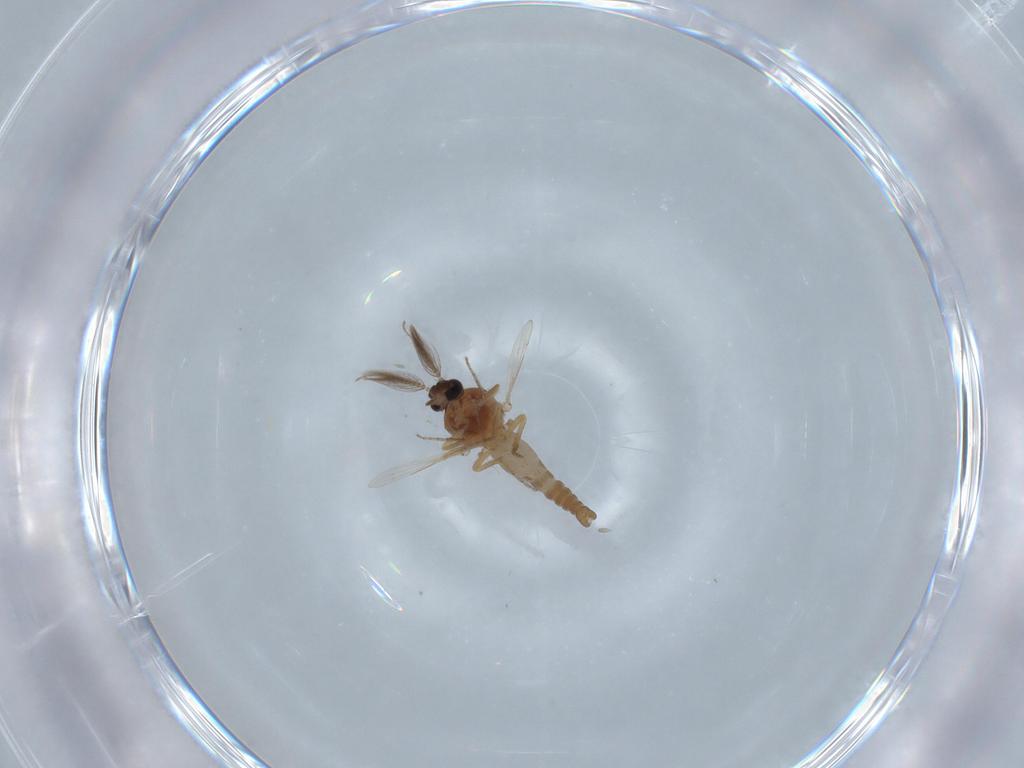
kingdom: Animalia
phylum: Arthropoda
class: Insecta
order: Diptera
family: Ceratopogonidae
